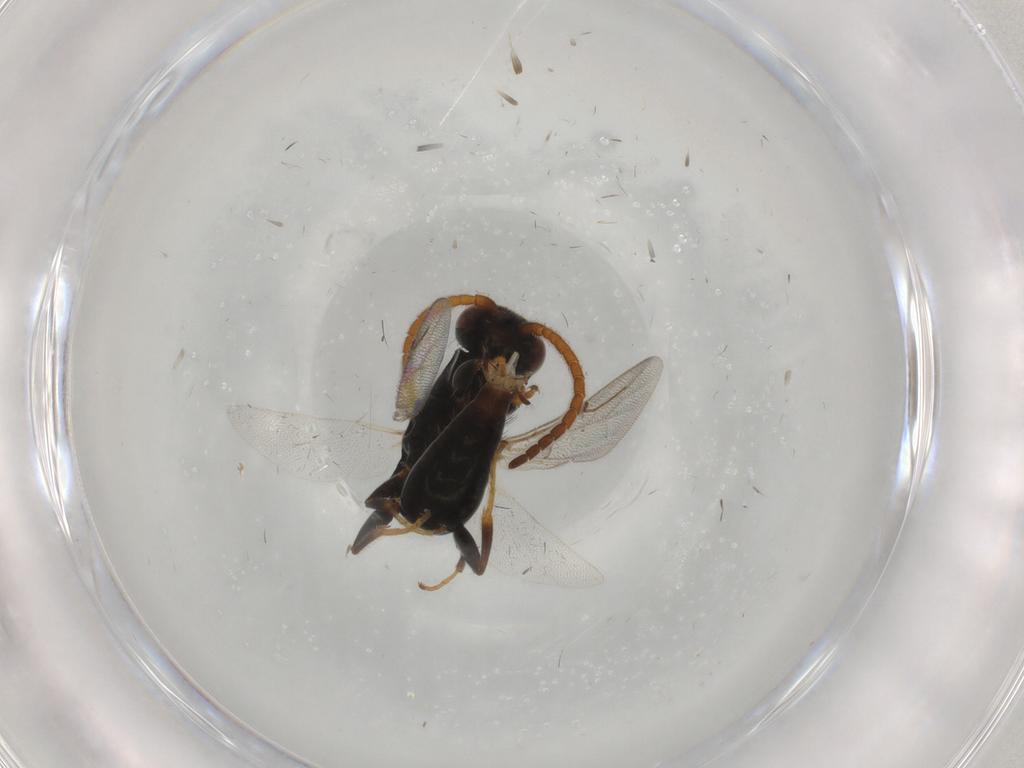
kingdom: Animalia
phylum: Arthropoda
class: Insecta
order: Hymenoptera
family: Bethylidae
